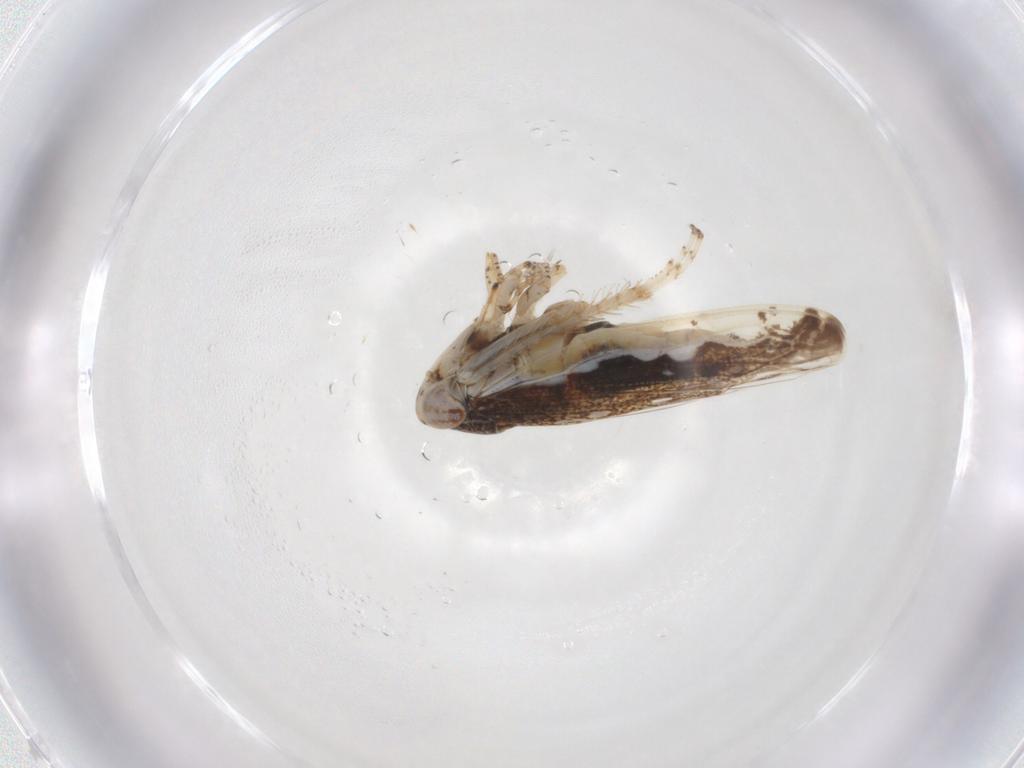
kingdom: Animalia
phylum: Arthropoda
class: Insecta
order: Hemiptera
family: Cicadellidae
